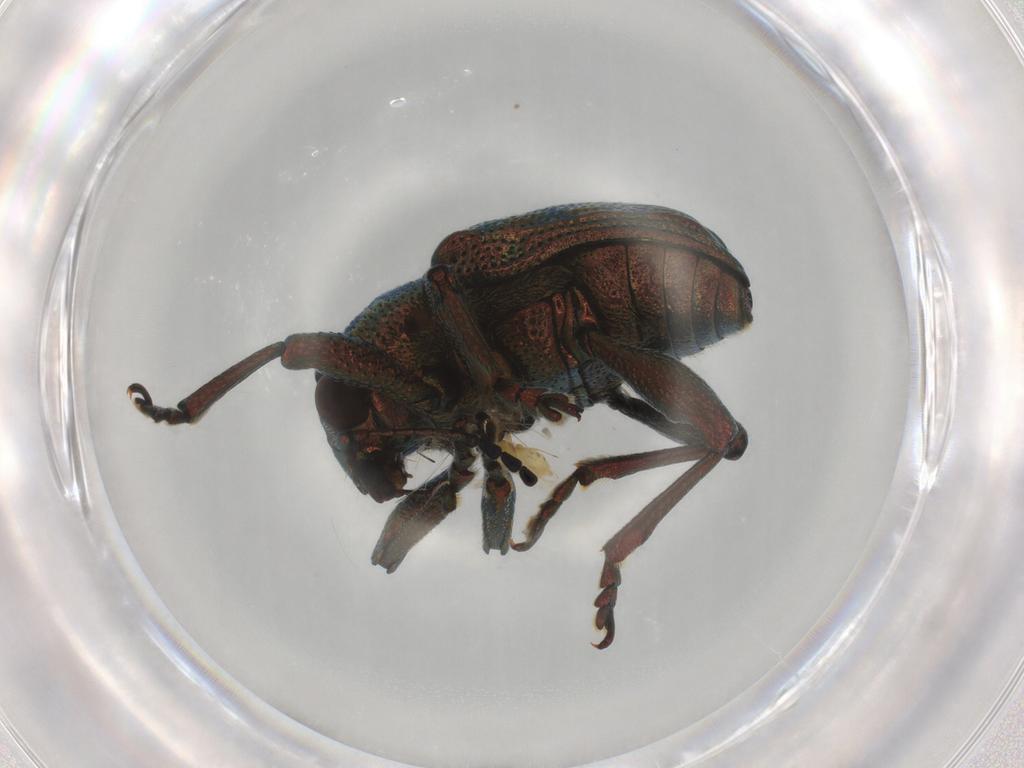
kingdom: Animalia
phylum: Arthropoda
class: Insecta
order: Coleoptera
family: Chrysomelidae
